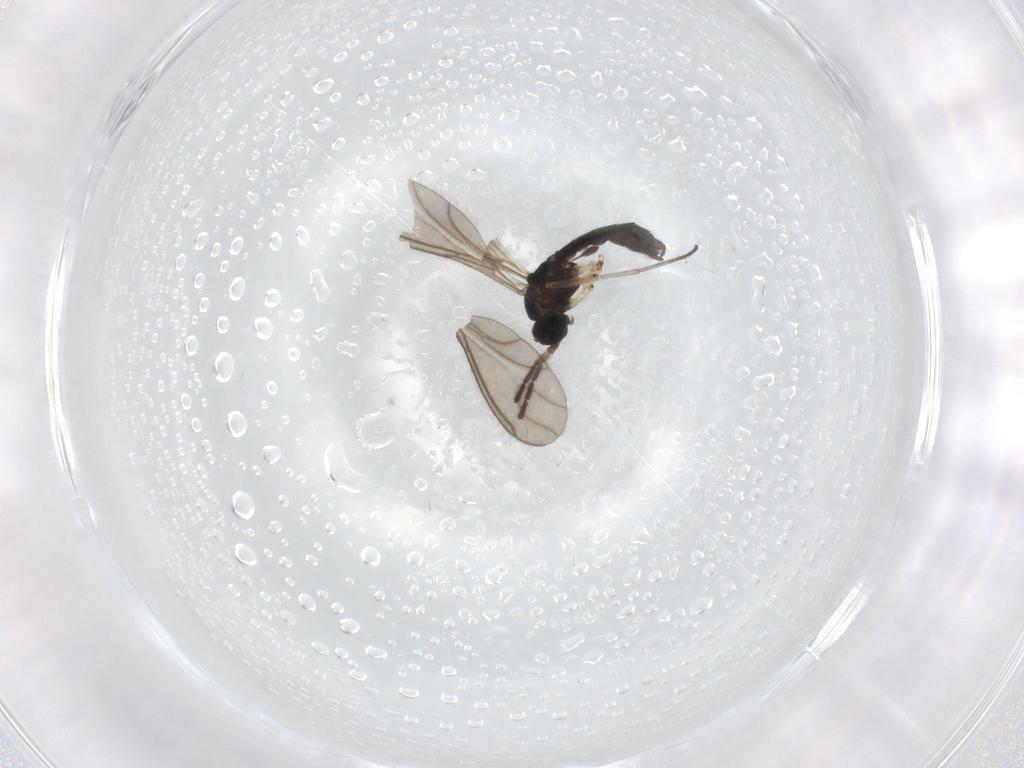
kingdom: Animalia
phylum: Arthropoda
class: Insecta
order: Diptera
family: Sciaridae
